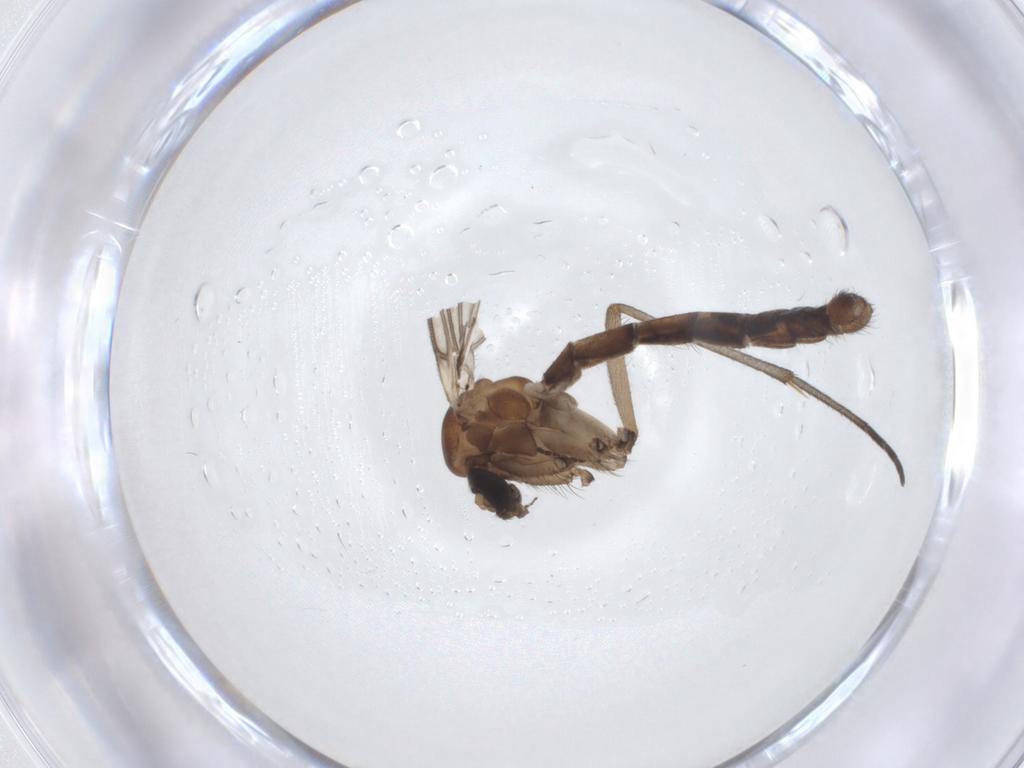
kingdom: Animalia
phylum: Arthropoda
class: Insecta
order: Diptera
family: Mycetophilidae
